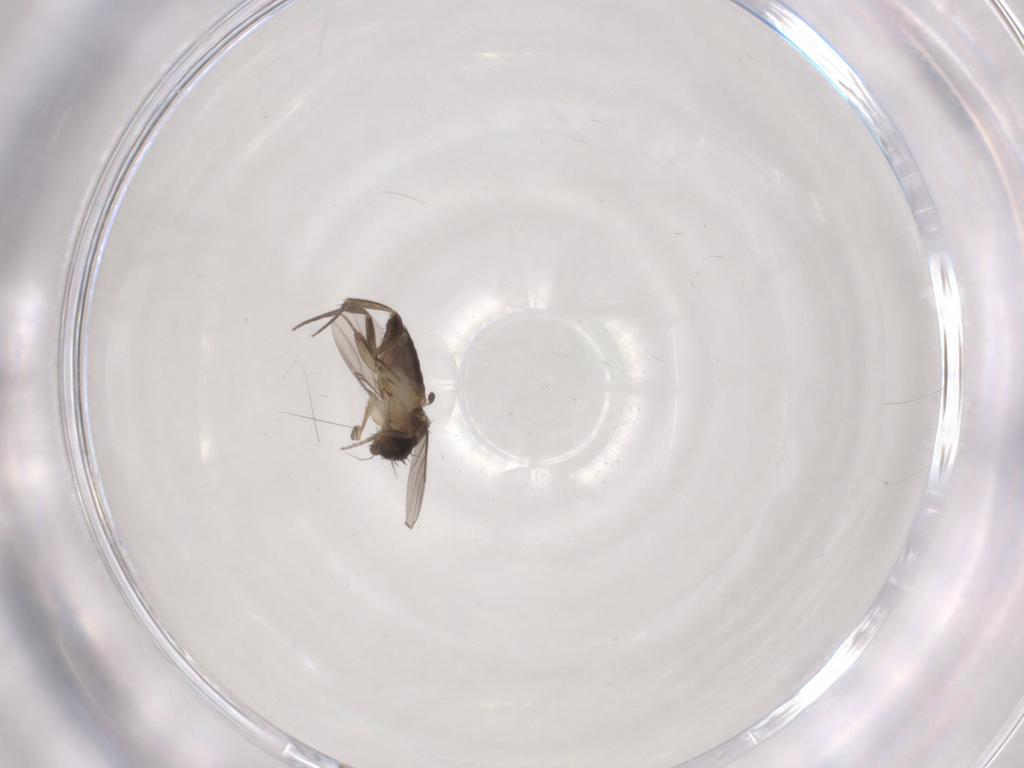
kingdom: Animalia
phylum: Arthropoda
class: Insecta
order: Diptera
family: Phoridae
